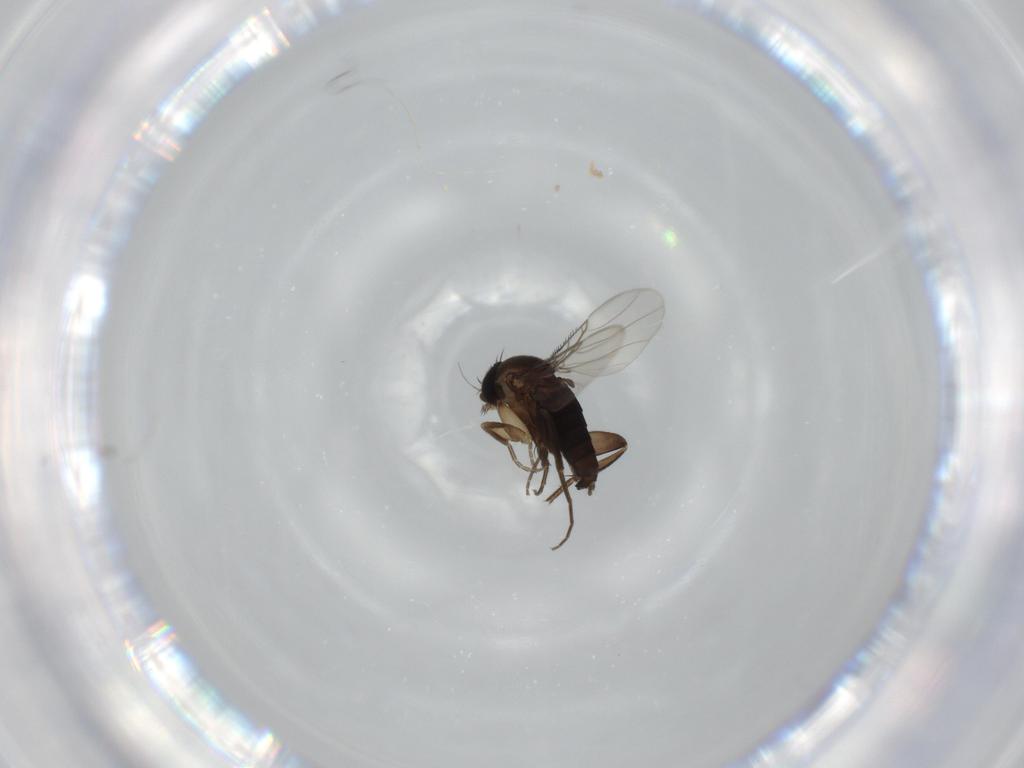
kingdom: Animalia
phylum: Arthropoda
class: Insecta
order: Diptera
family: Phoridae
